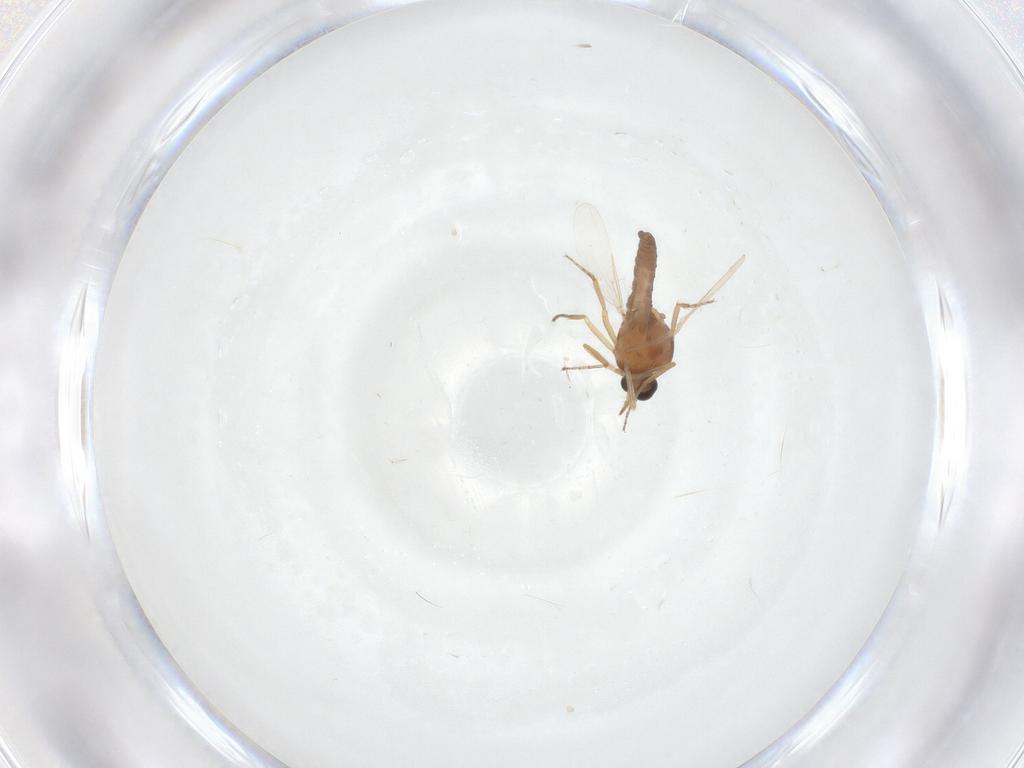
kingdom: Animalia
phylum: Arthropoda
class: Insecta
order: Diptera
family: Ceratopogonidae
